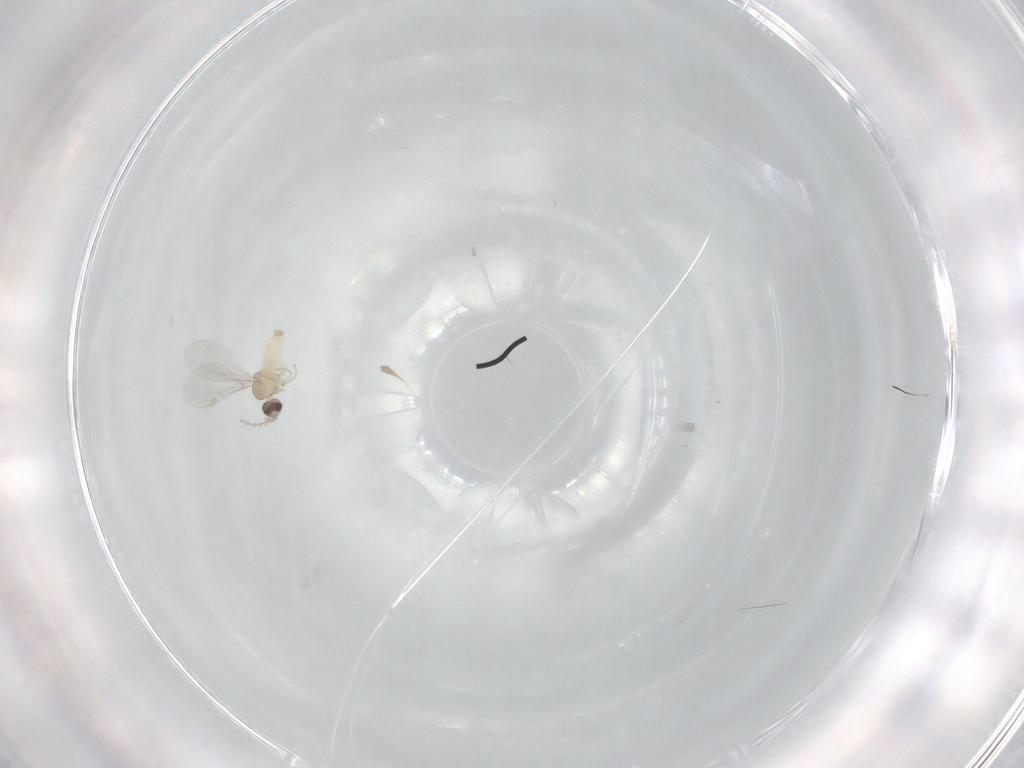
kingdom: Animalia
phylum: Arthropoda
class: Insecta
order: Diptera
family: Cecidomyiidae
